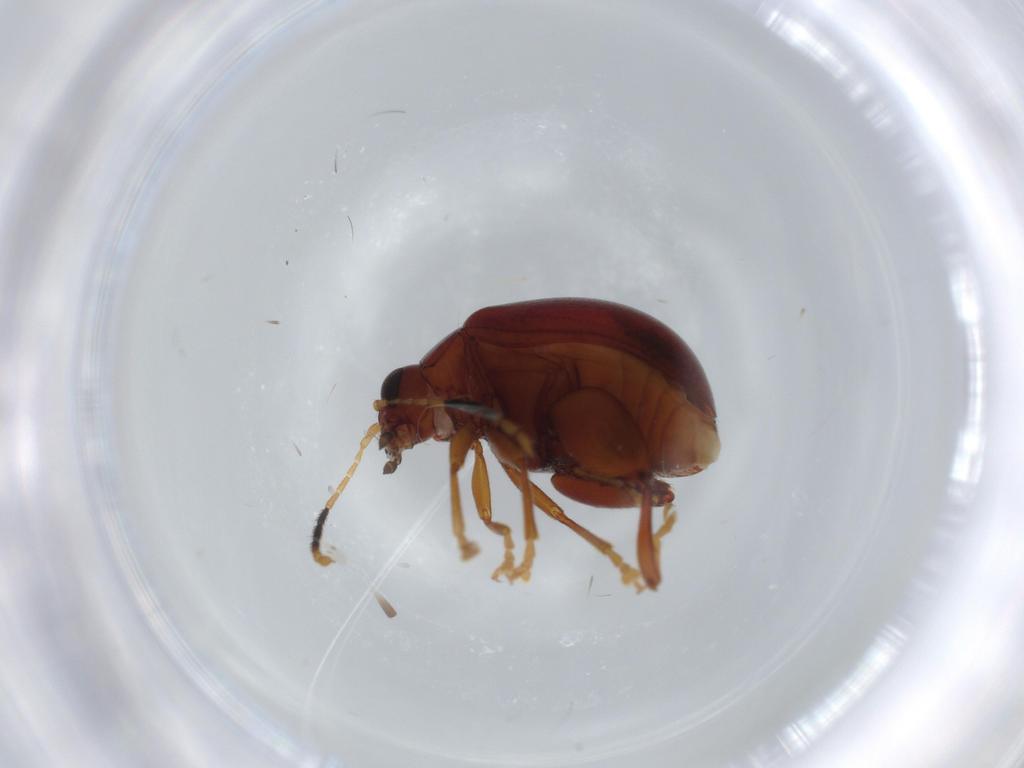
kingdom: Animalia
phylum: Arthropoda
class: Insecta
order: Coleoptera
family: Chrysomelidae
